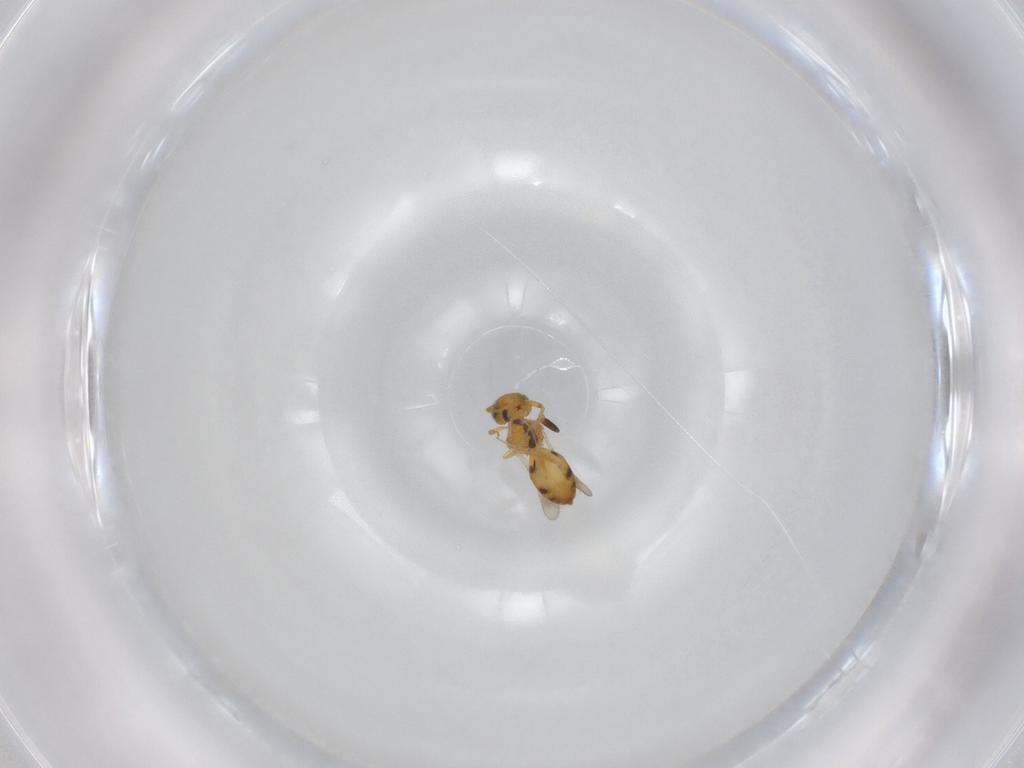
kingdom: Animalia
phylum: Arthropoda
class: Insecta
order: Hymenoptera
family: Scelionidae
